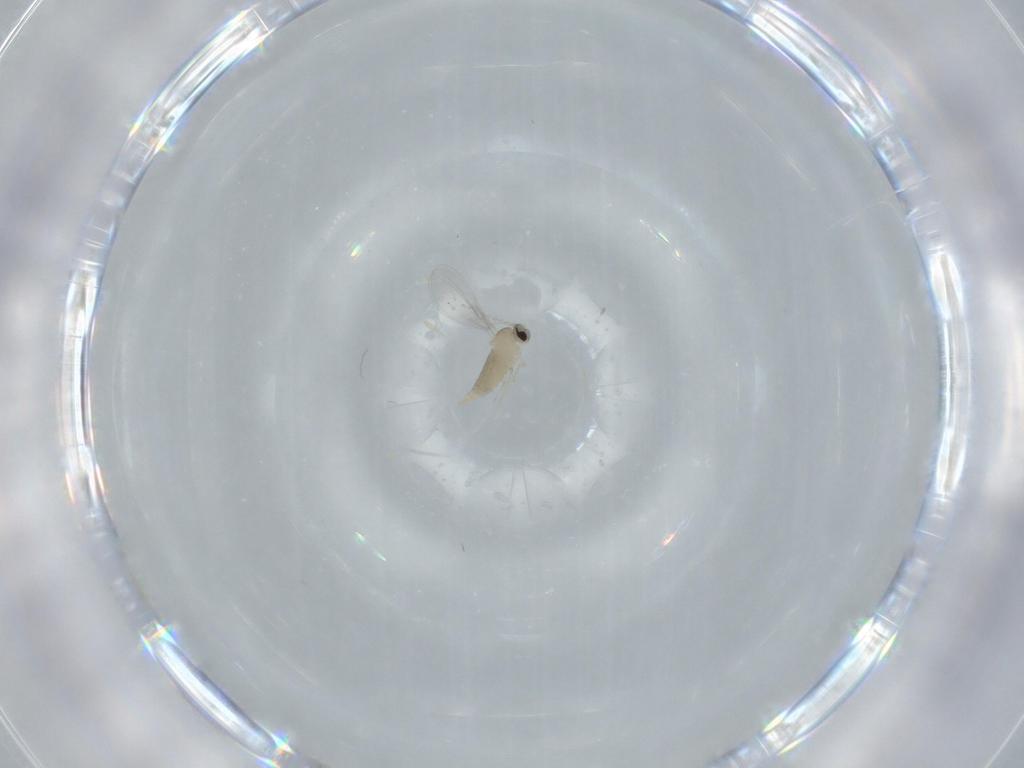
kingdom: Animalia
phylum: Arthropoda
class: Insecta
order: Diptera
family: Cecidomyiidae
